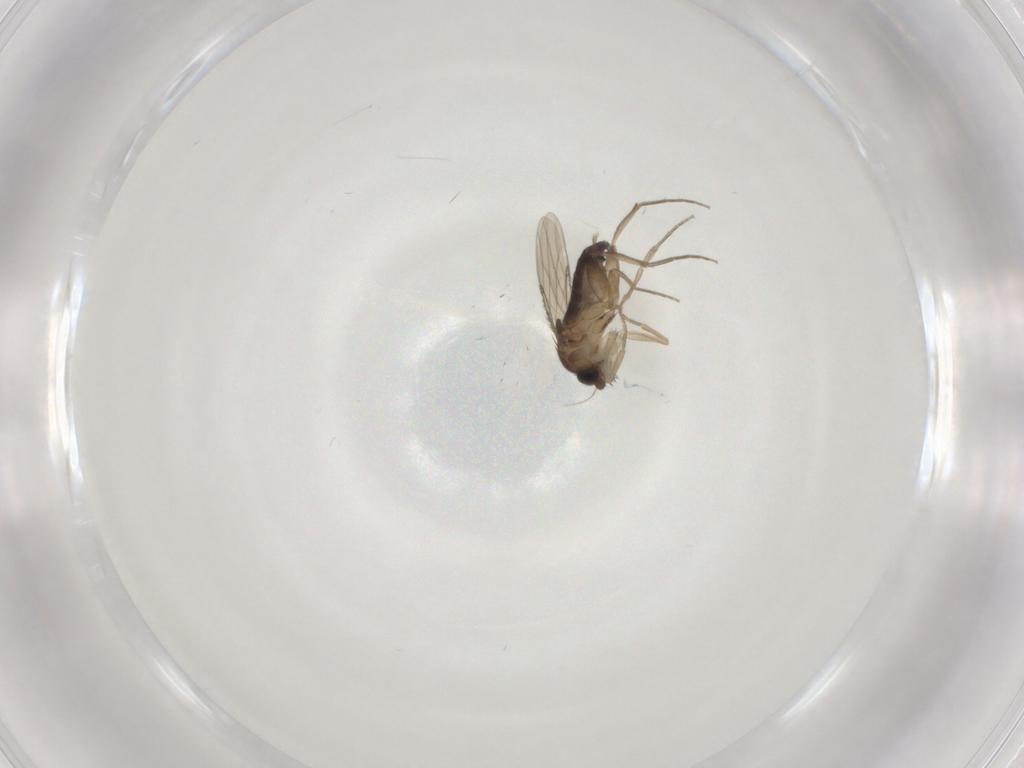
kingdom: Animalia
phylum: Arthropoda
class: Insecta
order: Diptera
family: Phoridae
